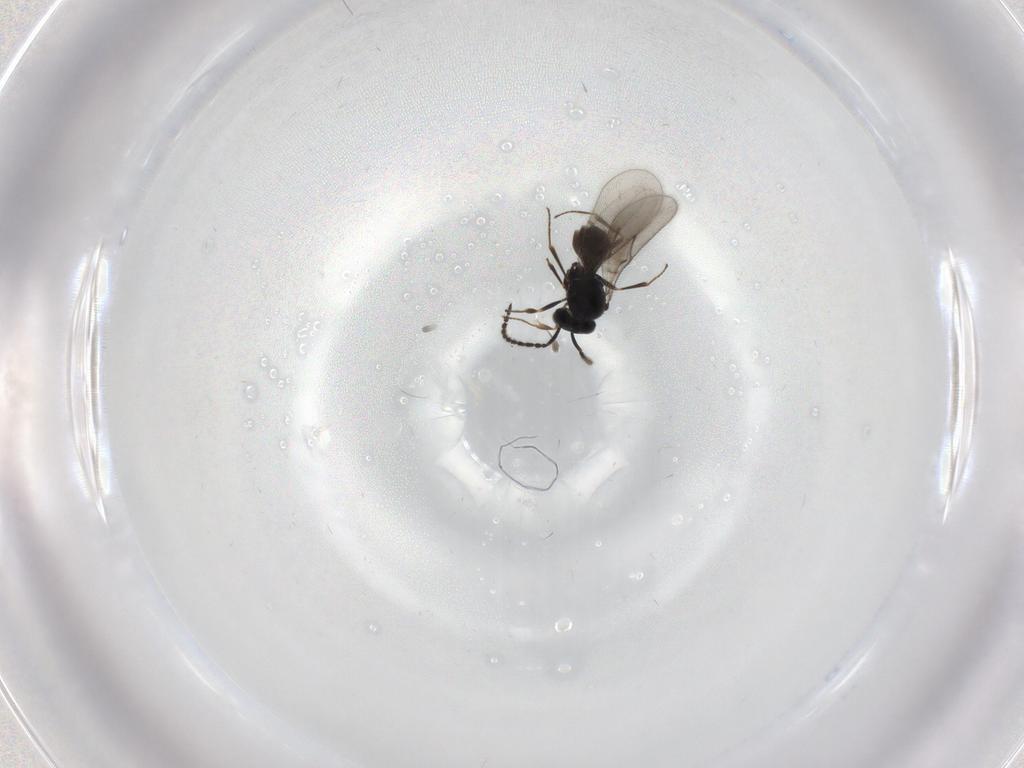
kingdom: Animalia
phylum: Arthropoda
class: Insecta
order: Hymenoptera
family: Scelionidae
